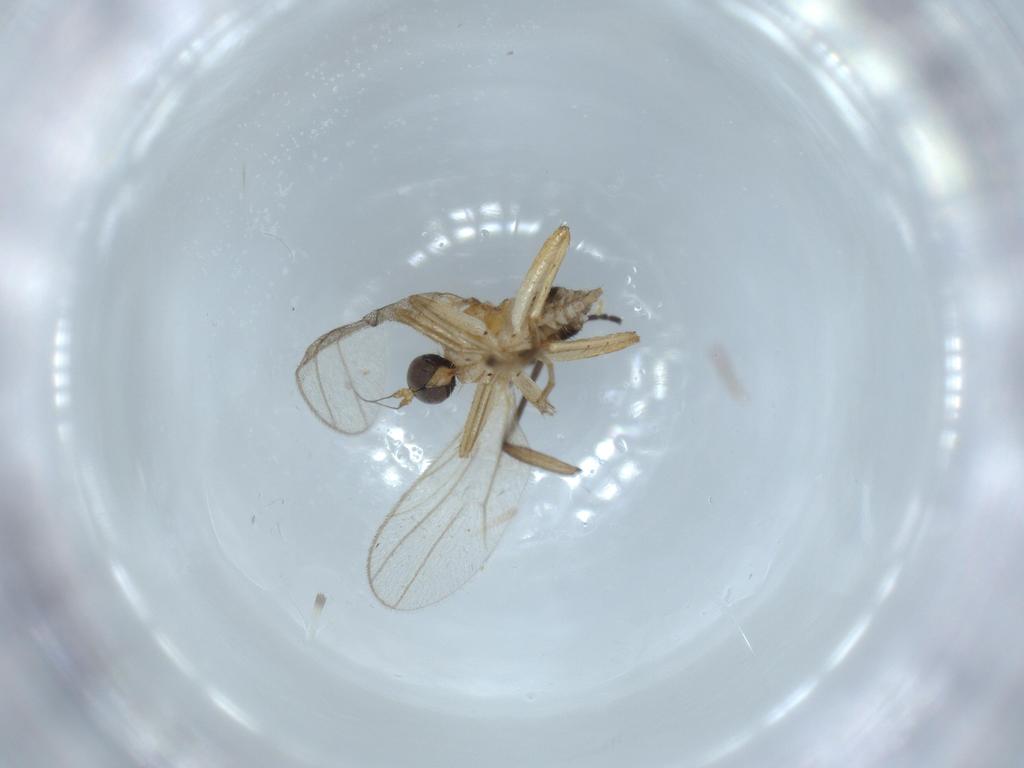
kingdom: Animalia
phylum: Arthropoda
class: Insecta
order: Diptera
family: Hybotidae
